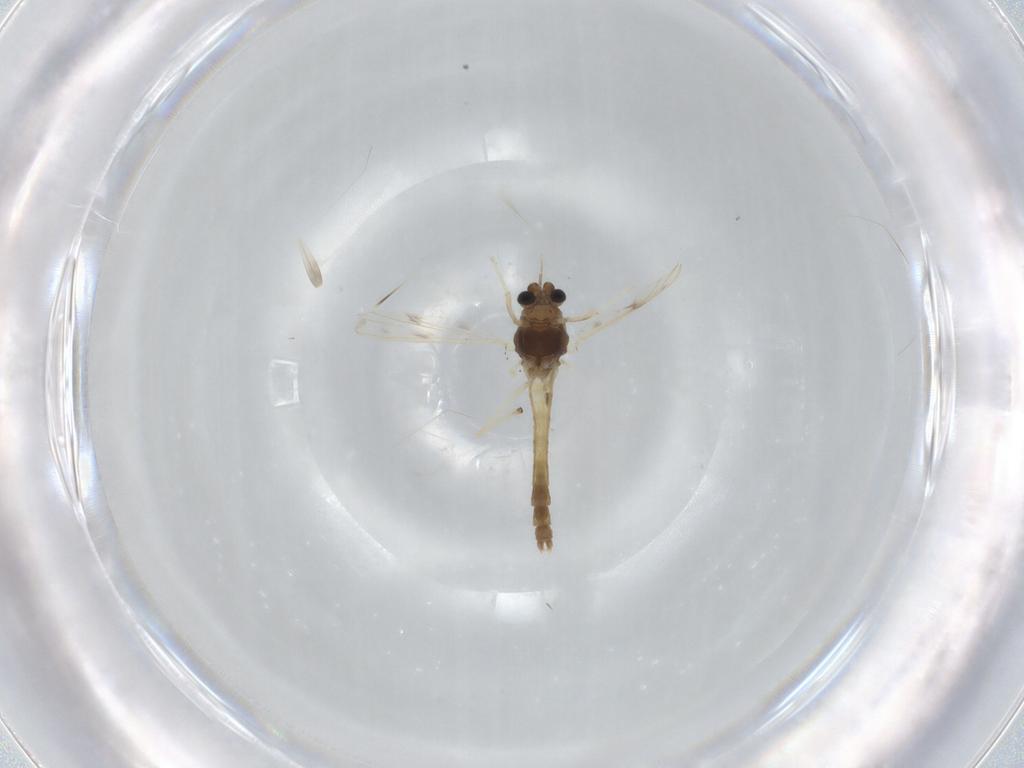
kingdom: Animalia
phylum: Arthropoda
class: Insecta
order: Diptera
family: Chironomidae
